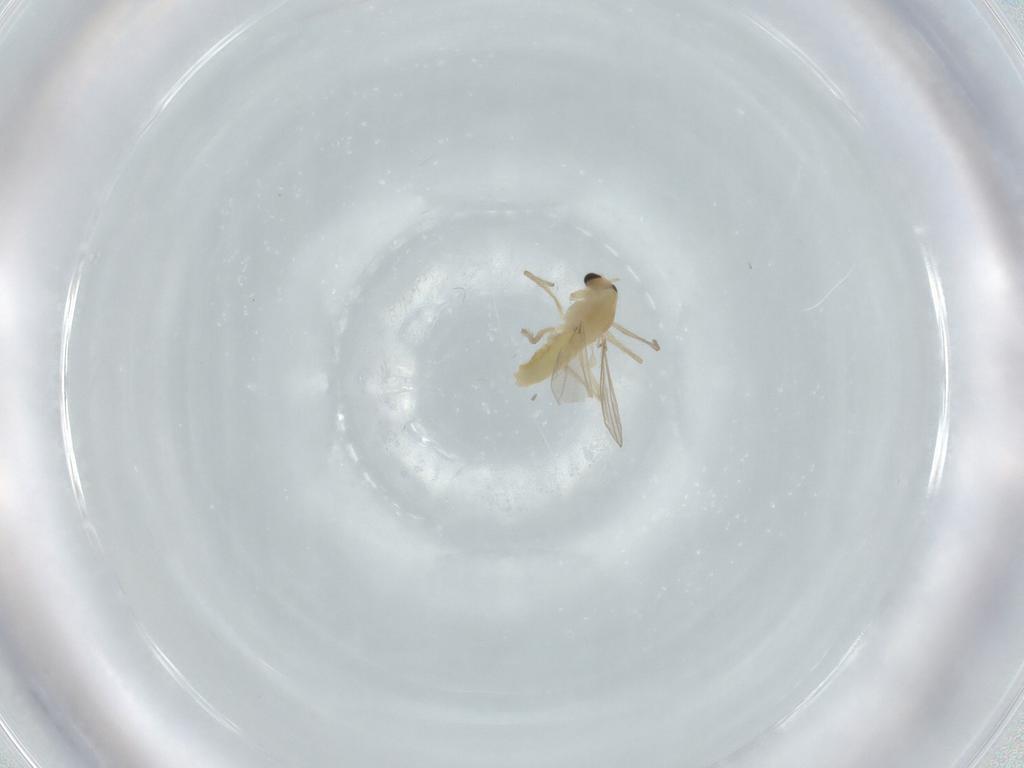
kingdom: Animalia
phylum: Arthropoda
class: Insecta
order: Diptera
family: Chironomidae
